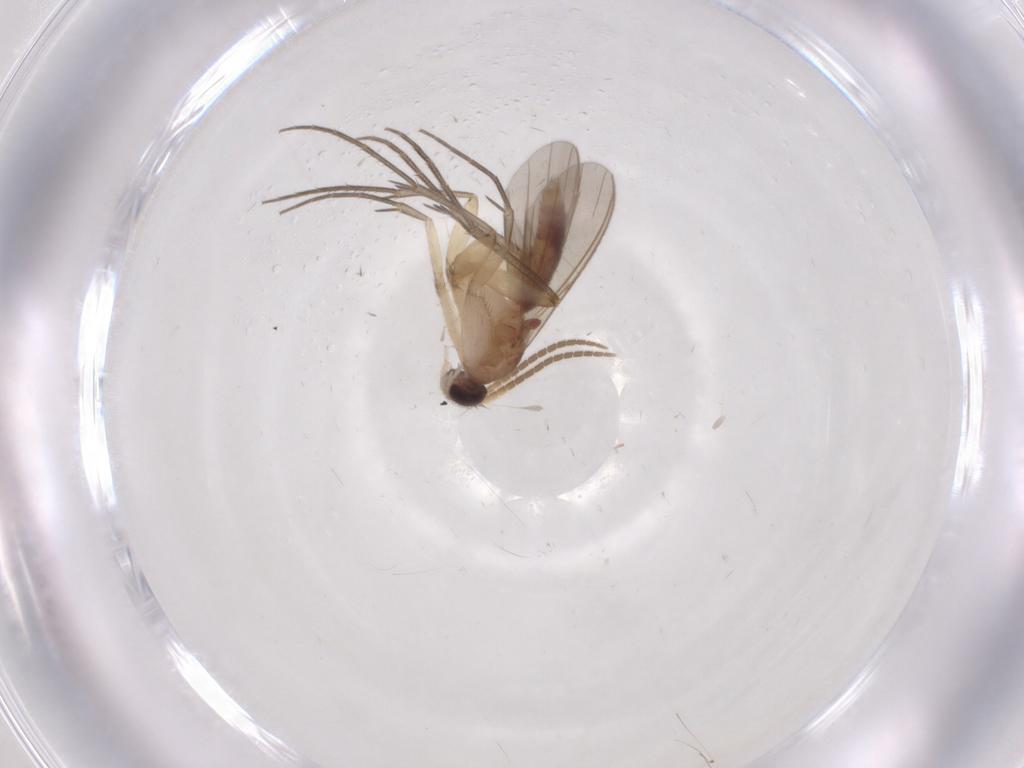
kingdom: Animalia
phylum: Arthropoda
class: Insecta
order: Diptera
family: Mycetophilidae
